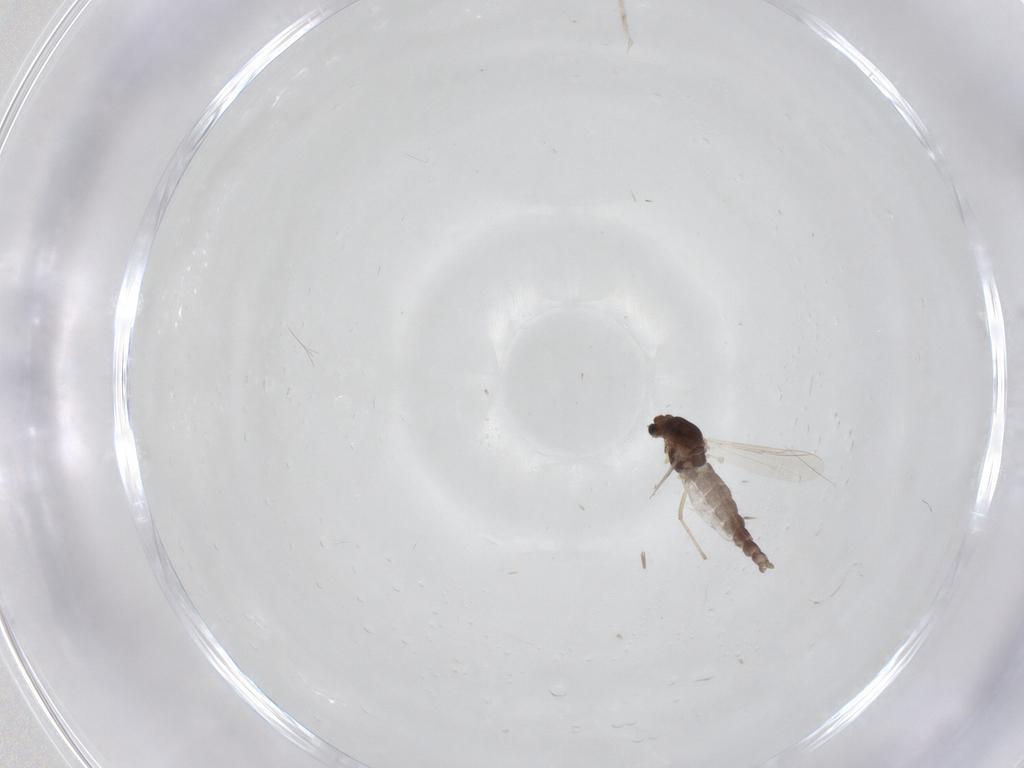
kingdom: Animalia
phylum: Arthropoda
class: Insecta
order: Diptera
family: Chironomidae
